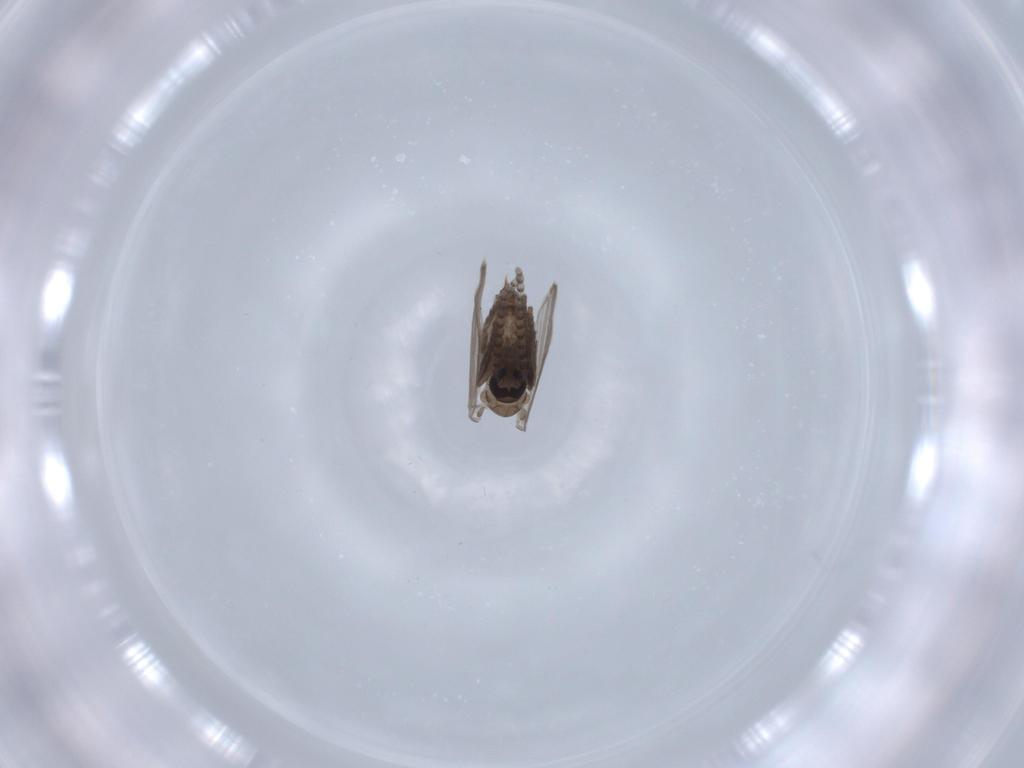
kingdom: Animalia
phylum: Arthropoda
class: Insecta
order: Diptera
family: Psychodidae
